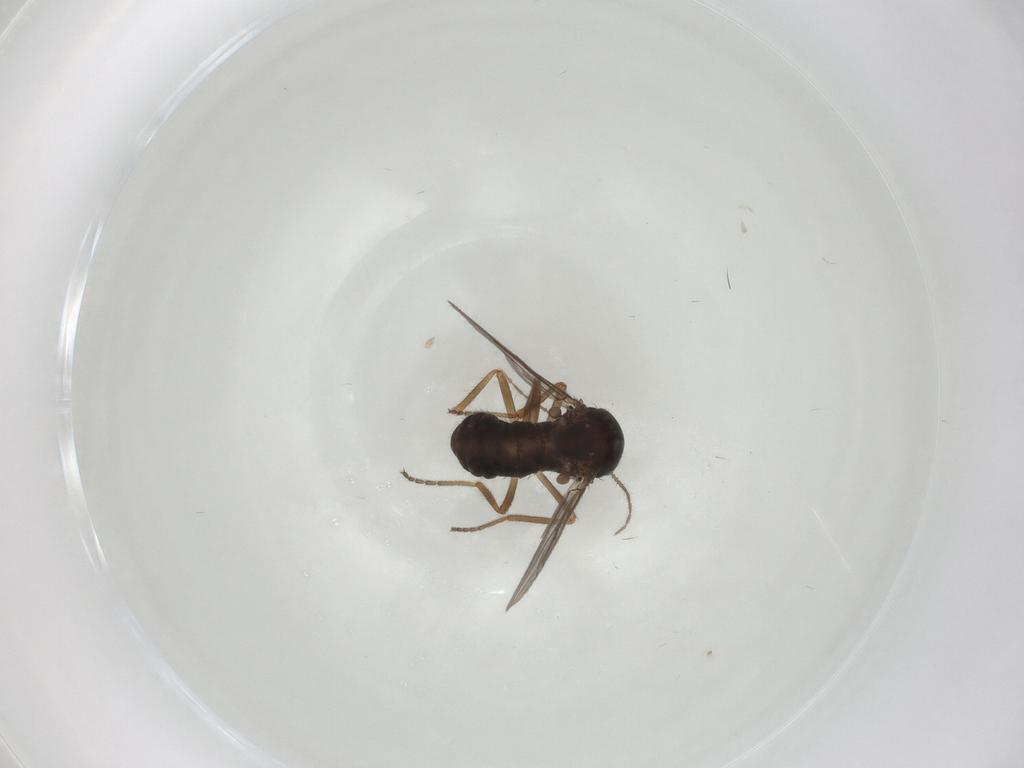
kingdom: Animalia
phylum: Arthropoda
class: Insecta
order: Diptera
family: Ceratopogonidae
